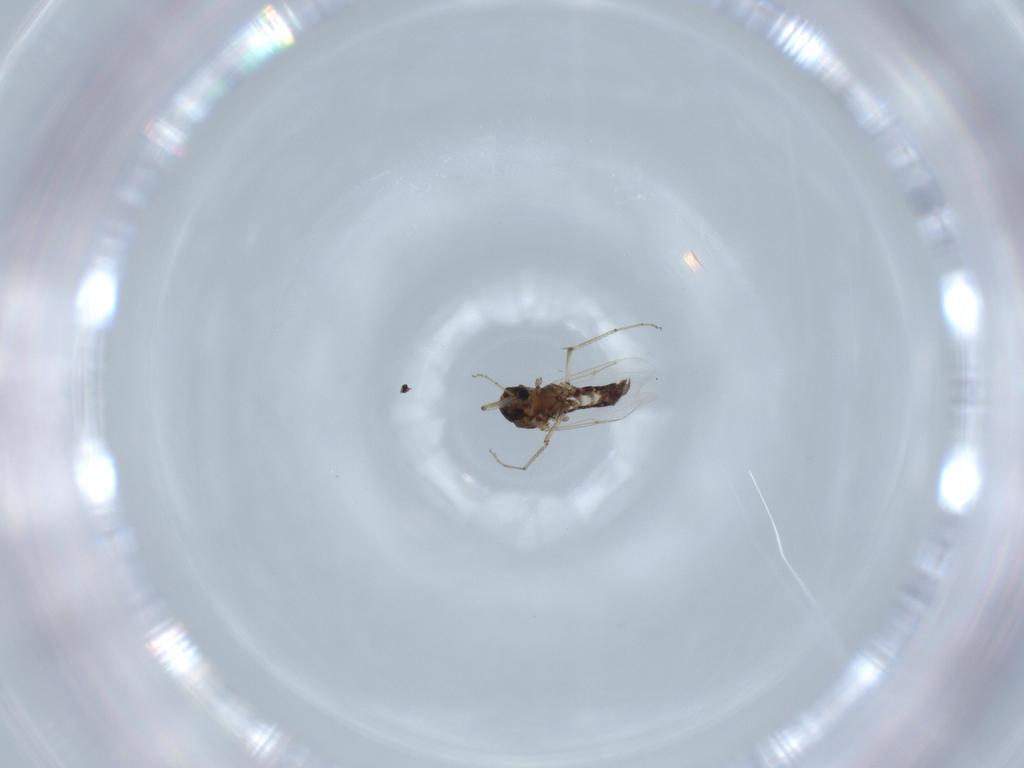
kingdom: Animalia
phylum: Arthropoda
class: Insecta
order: Diptera
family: Ceratopogonidae
